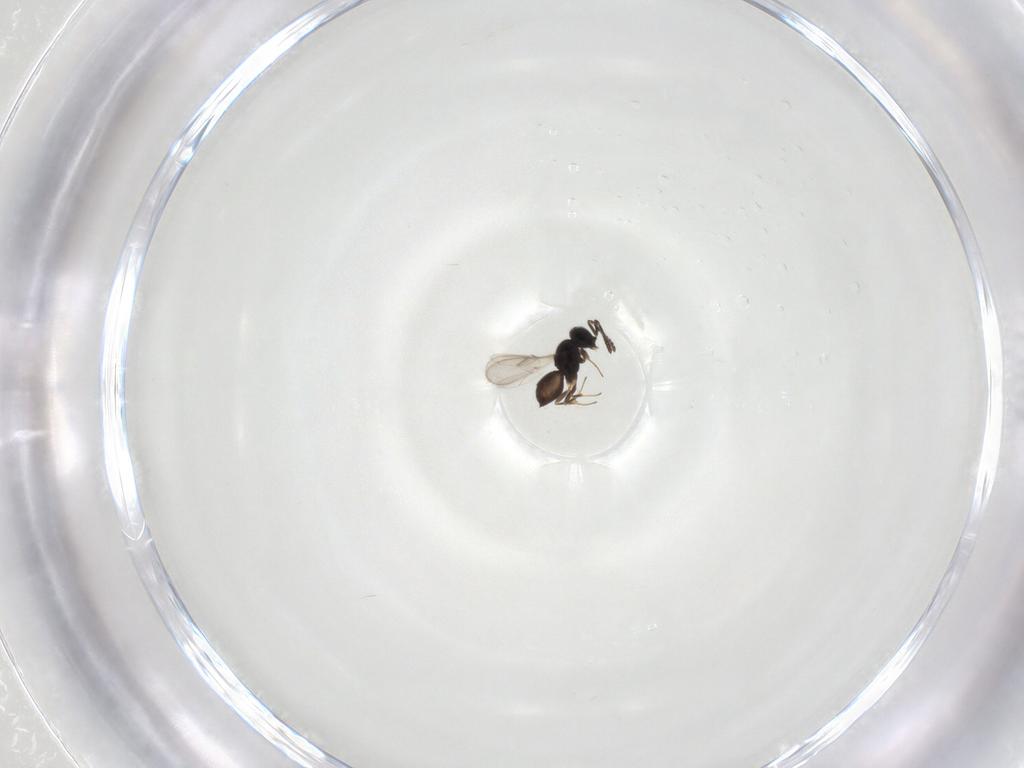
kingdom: Animalia
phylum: Arthropoda
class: Insecta
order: Hymenoptera
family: Scelionidae
